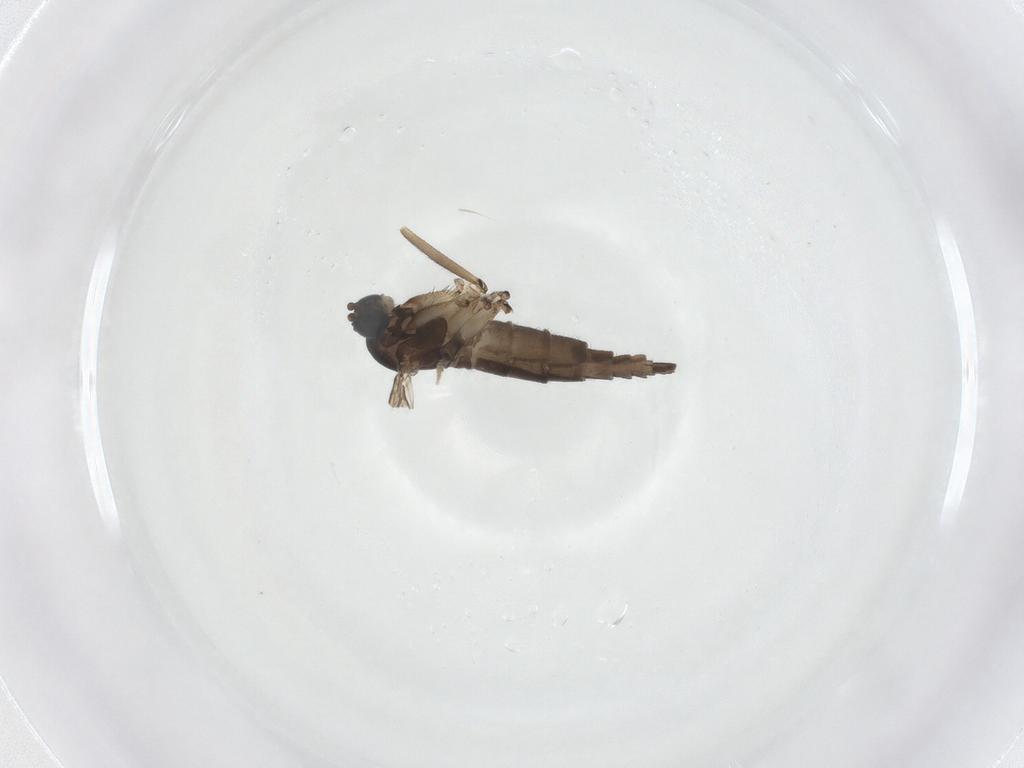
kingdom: Animalia
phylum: Arthropoda
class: Insecta
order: Diptera
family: Sciaridae
